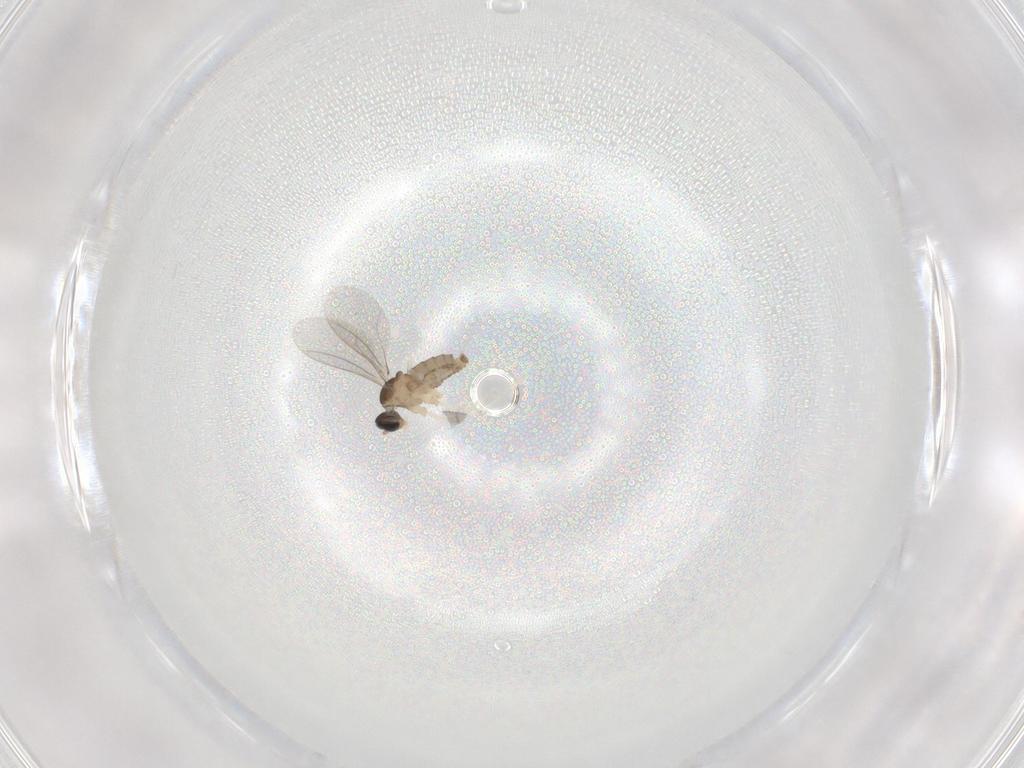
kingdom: Animalia
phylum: Arthropoda
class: Insecta
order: Diptera
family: Cecidomyiidae
